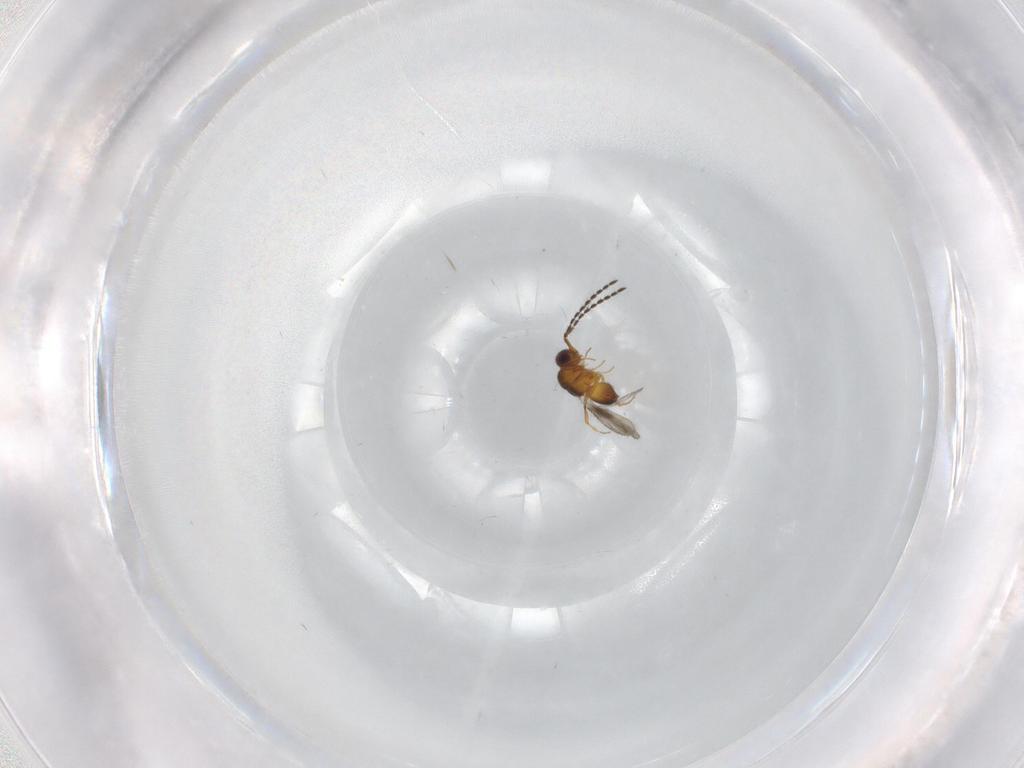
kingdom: Animalia
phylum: Arthropoda
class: Insecta
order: Hymenoptera
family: Ceraphronidae
